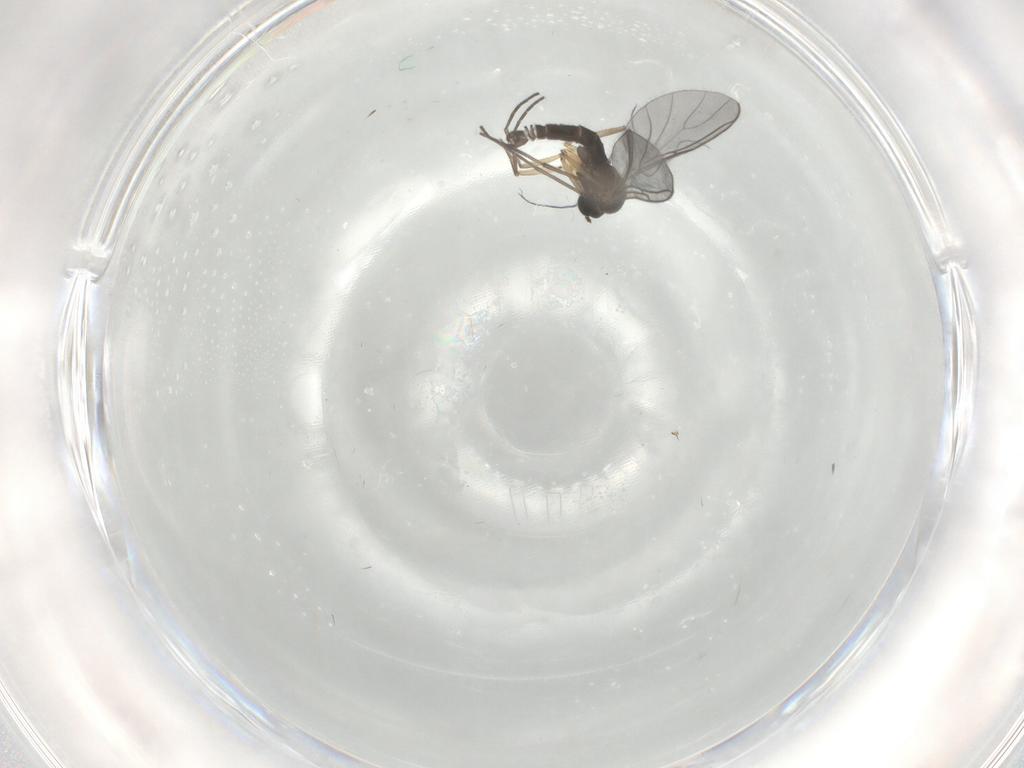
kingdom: Animalia
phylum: Arthropoda
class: Insecta
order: Diptera
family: Sciaridae
